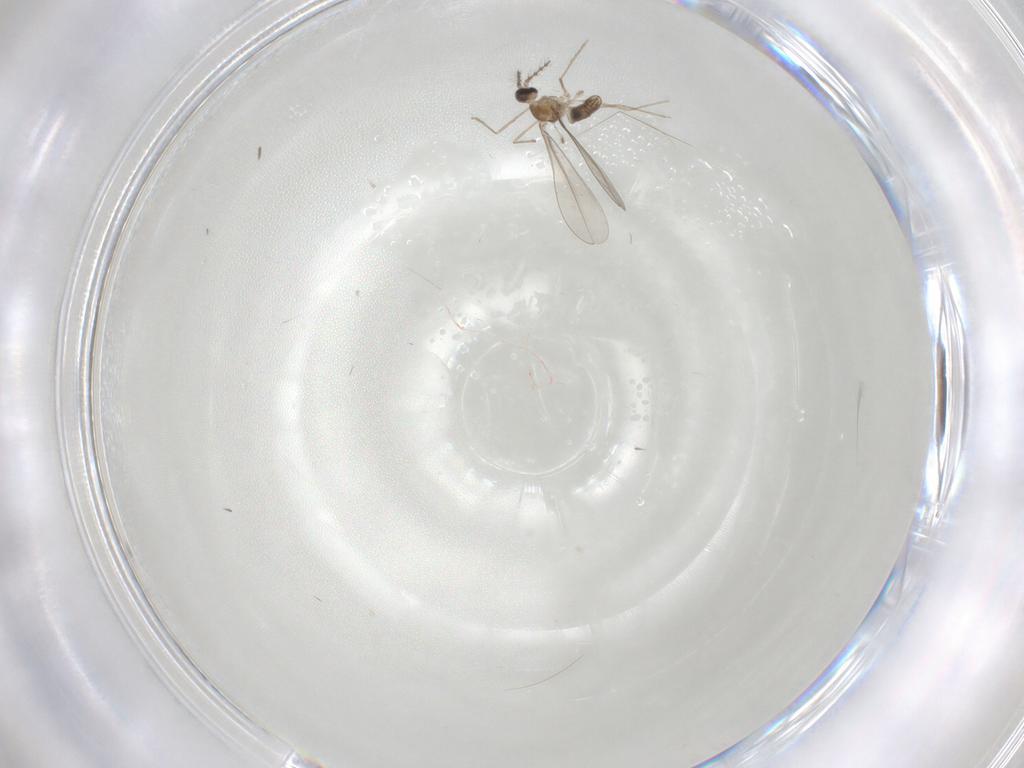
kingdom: Animalia
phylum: Arthropoda
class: Insecta
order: Diptera
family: Cecidomyiidae
